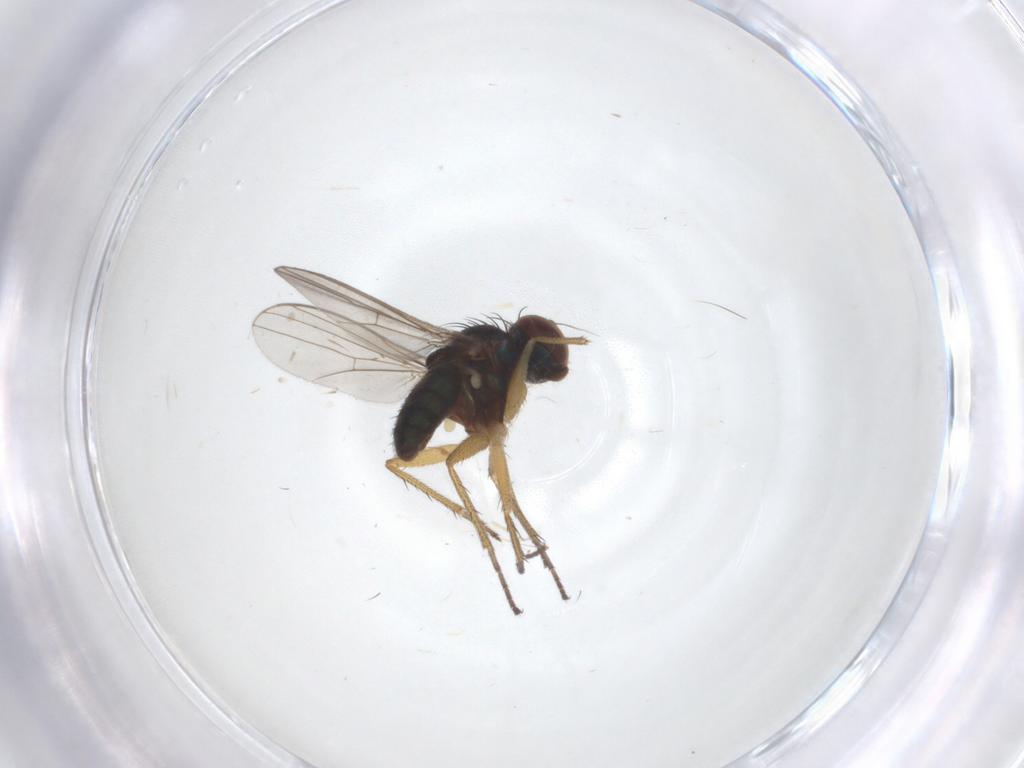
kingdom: Animalia
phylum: Arthropoda
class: Insecta
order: Diptera
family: Dolichopodidae
